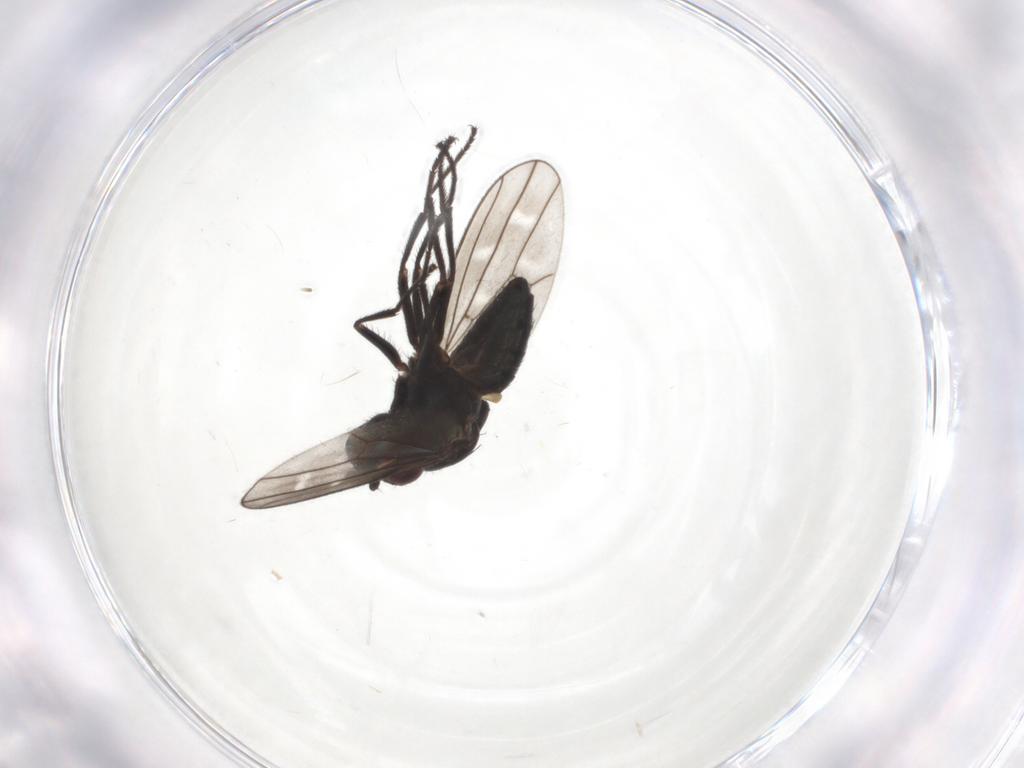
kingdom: Animalia
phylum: Arthropoda
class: Insecta
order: Diptera
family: Ephydridae
